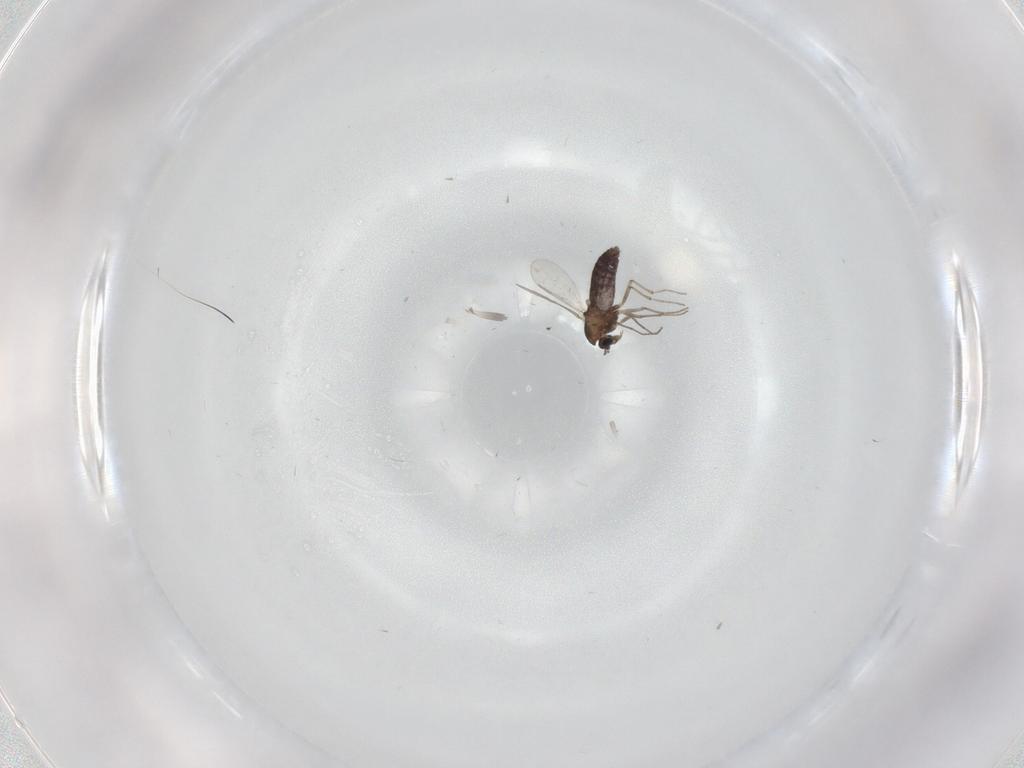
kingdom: Animalia
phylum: Arthropoda
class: Insecta
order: Diptera
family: Chironomidae
